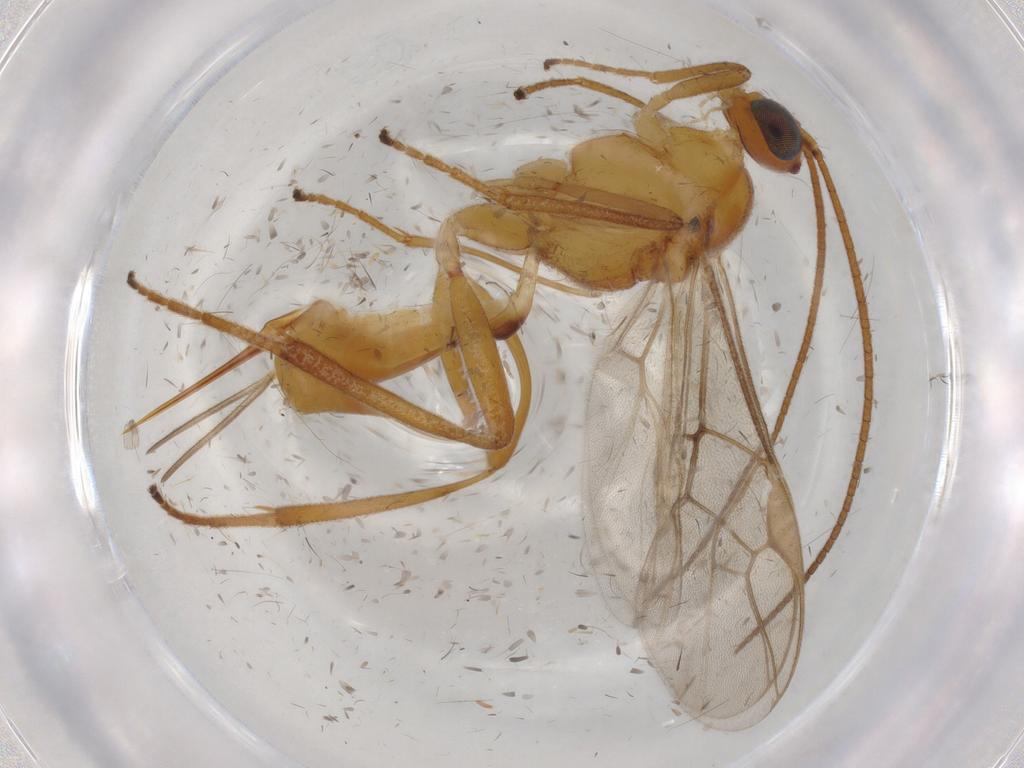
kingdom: Animalia
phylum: Arthropoda
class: Insecta
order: Hymenoptera
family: Braconidae
